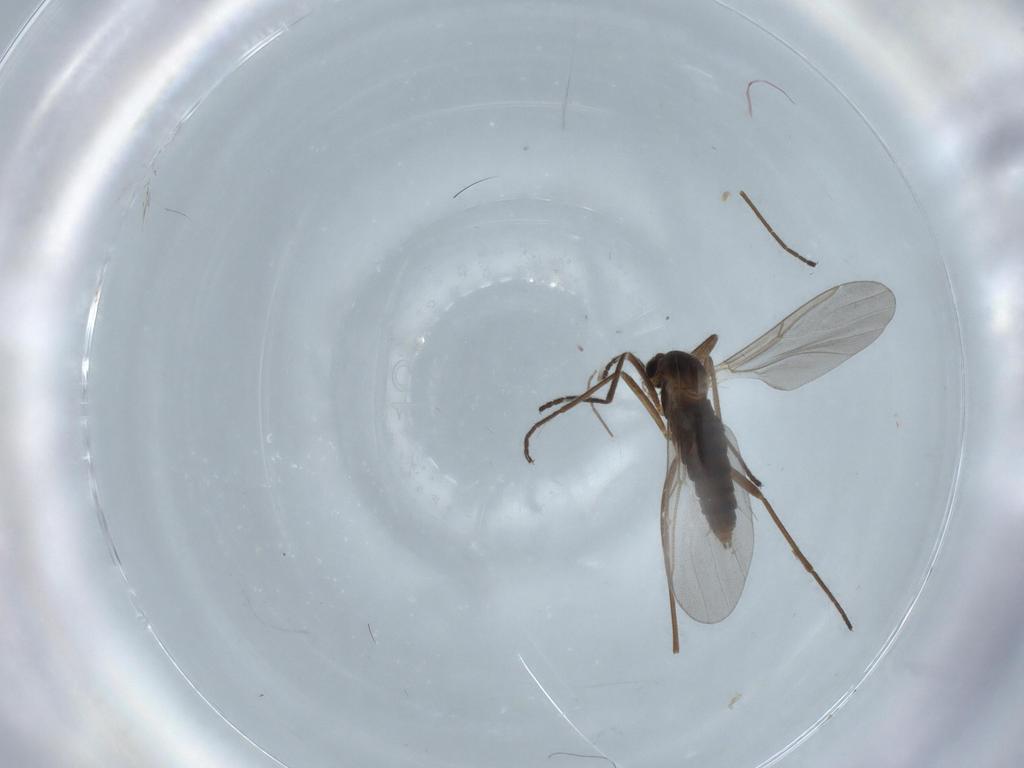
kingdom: Animalia
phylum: Arthropoda
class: Insecta
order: Diptera
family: Cecidomyiidae
